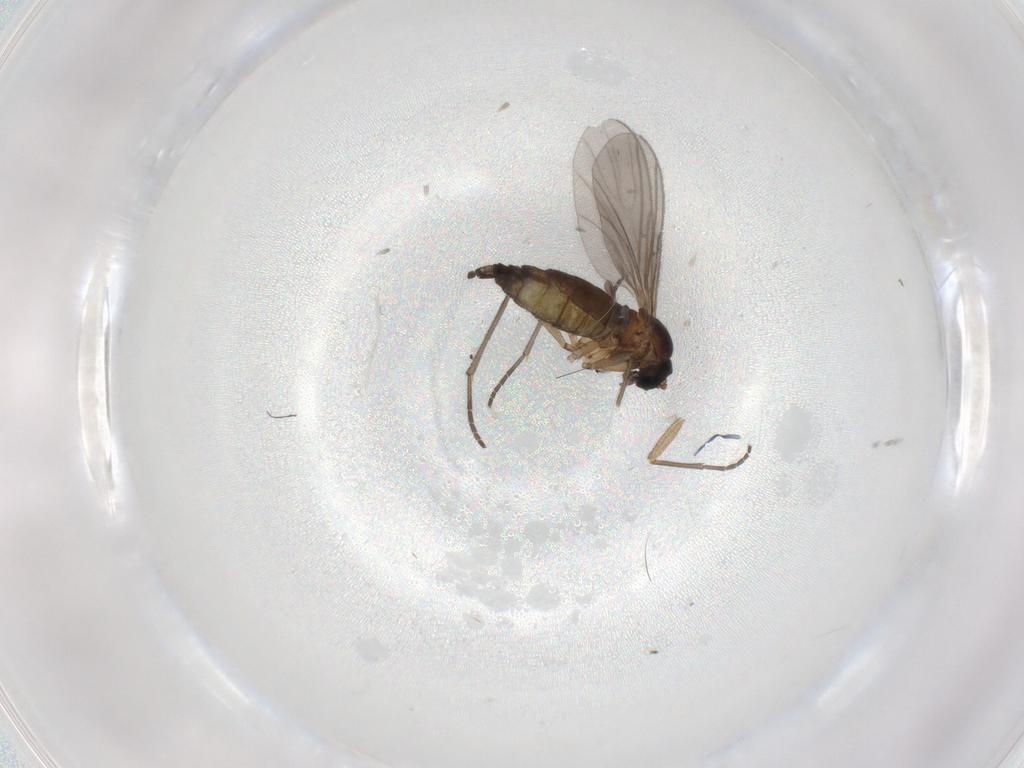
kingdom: Animalia
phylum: Arthropoda
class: Insecta
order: Diptera
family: Sciaridae
